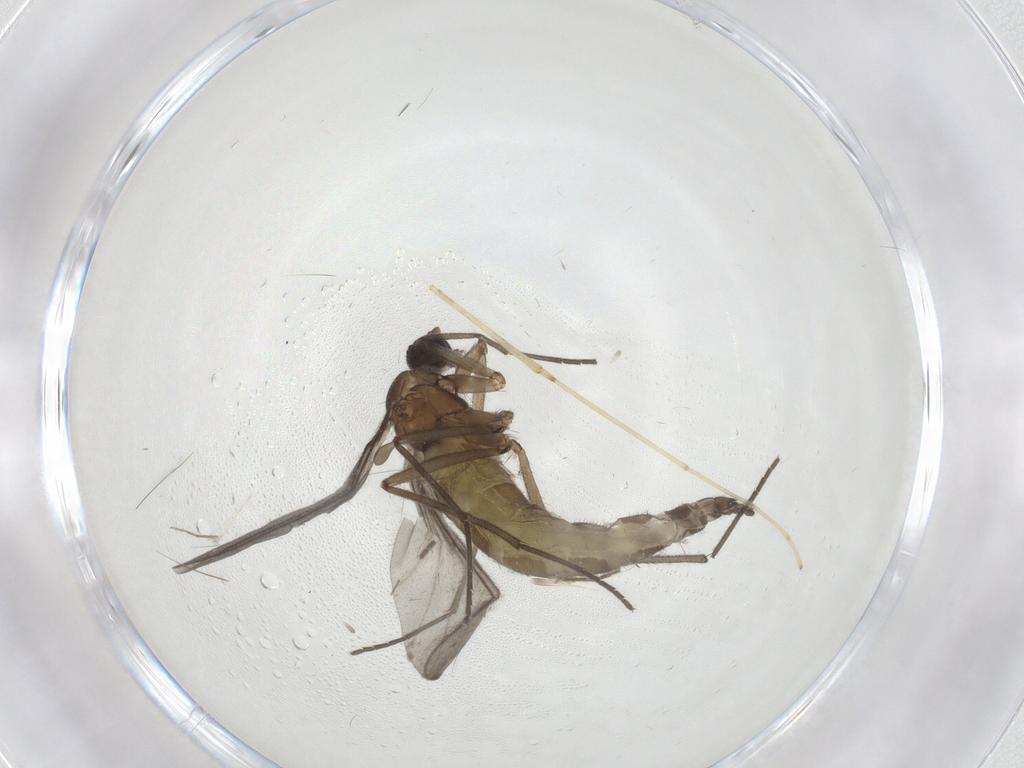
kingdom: Animalia
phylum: Arthropoda
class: Insecta
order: Diptera
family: Sciaridae
